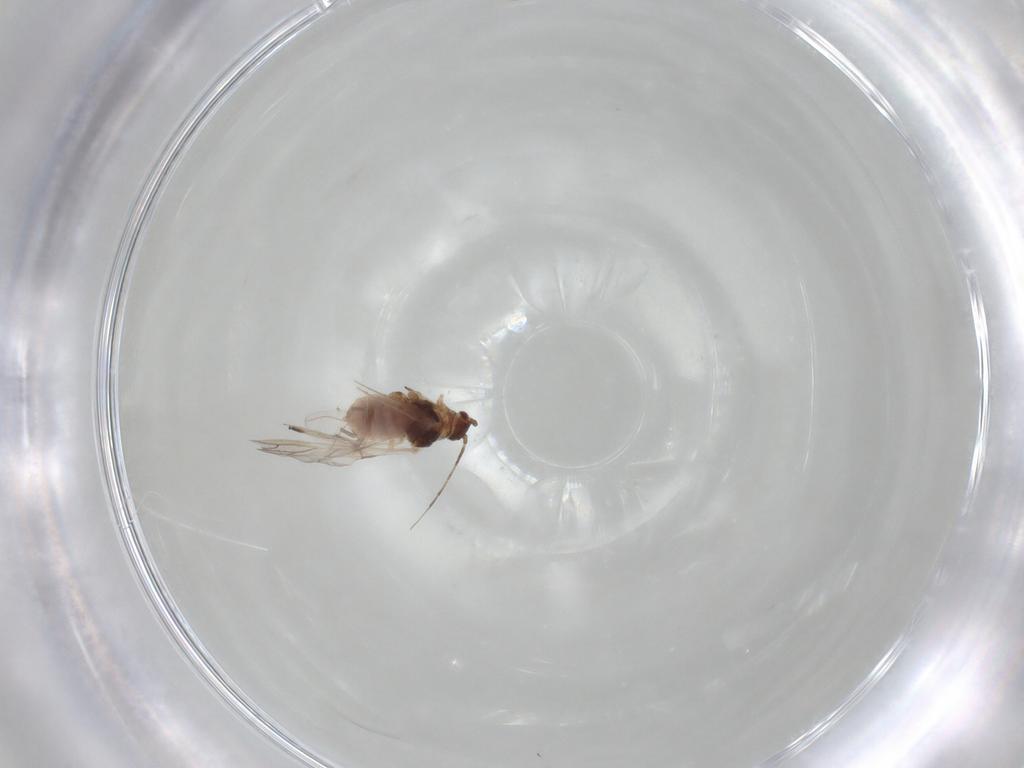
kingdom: Animalia
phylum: Arthropoda
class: Insecta
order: Hemiptera
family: Aphididae
